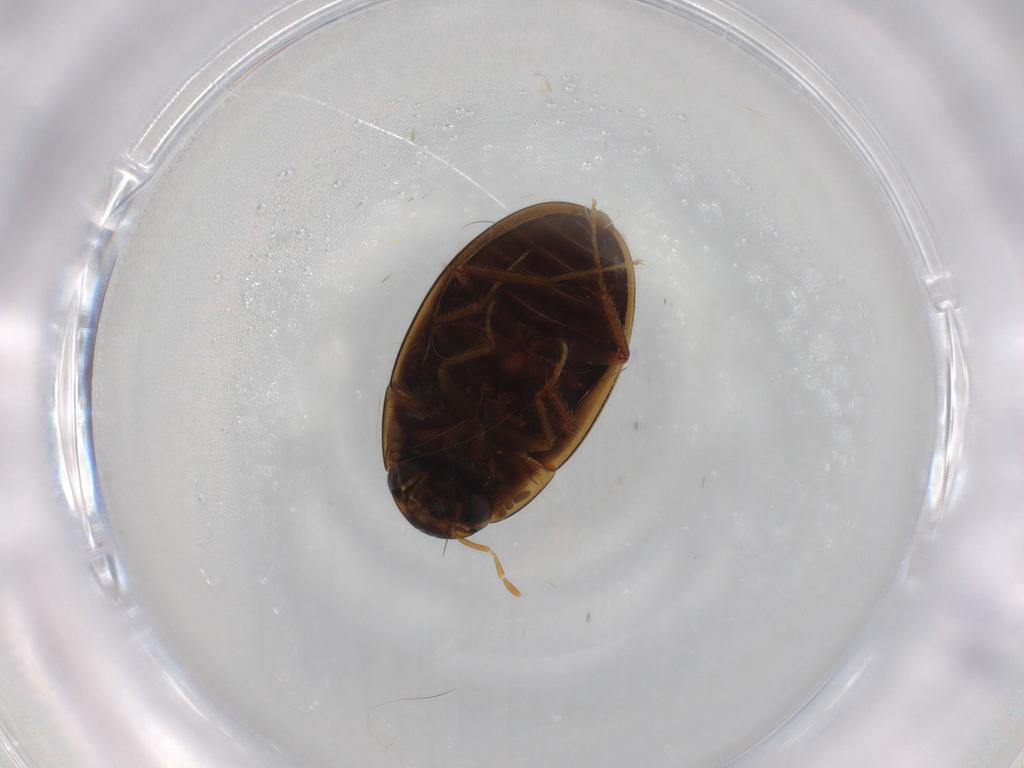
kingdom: Animalia
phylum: Arthropoda
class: Insecta
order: Coleoptera
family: Hydrophilidae
